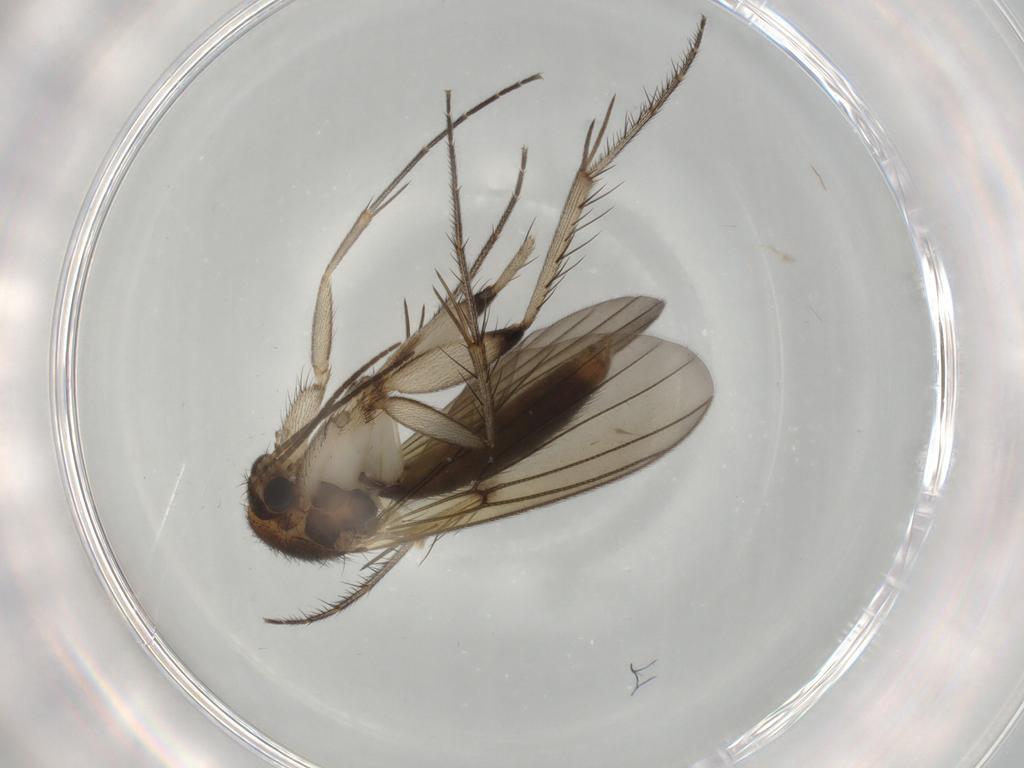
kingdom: Animalia
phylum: Arthropoda
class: Insecta
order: Diptera
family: Mycetophilidae
